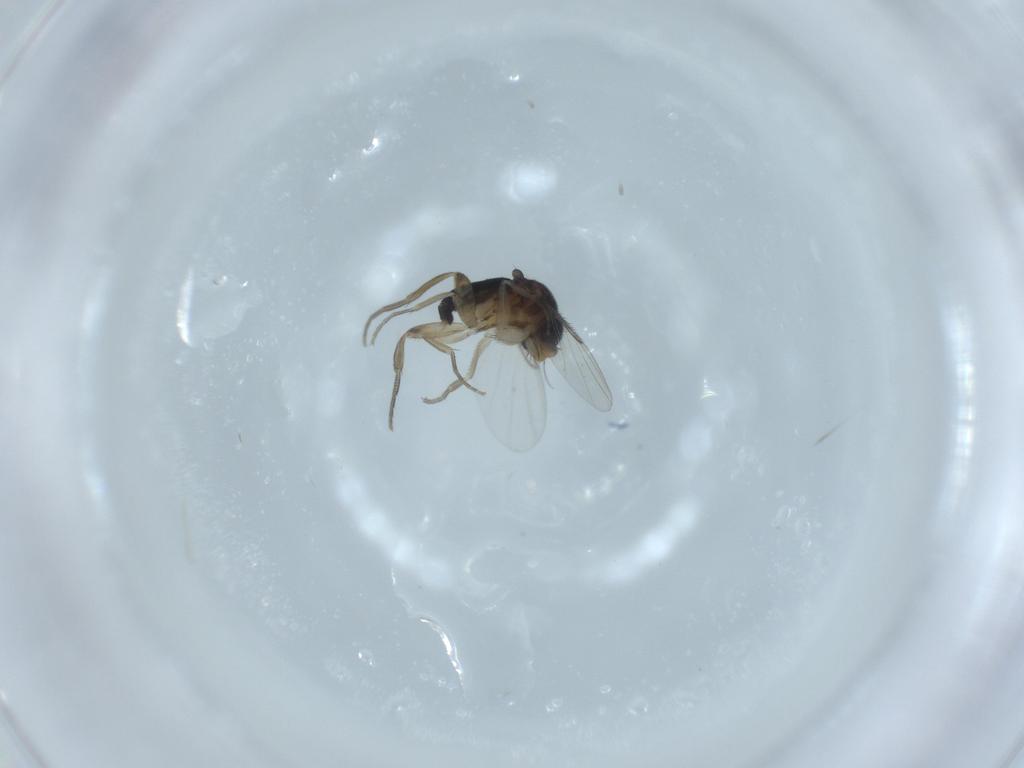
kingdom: Animalia
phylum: Arthropoda
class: Insecta
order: Diptera
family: Phoridae
